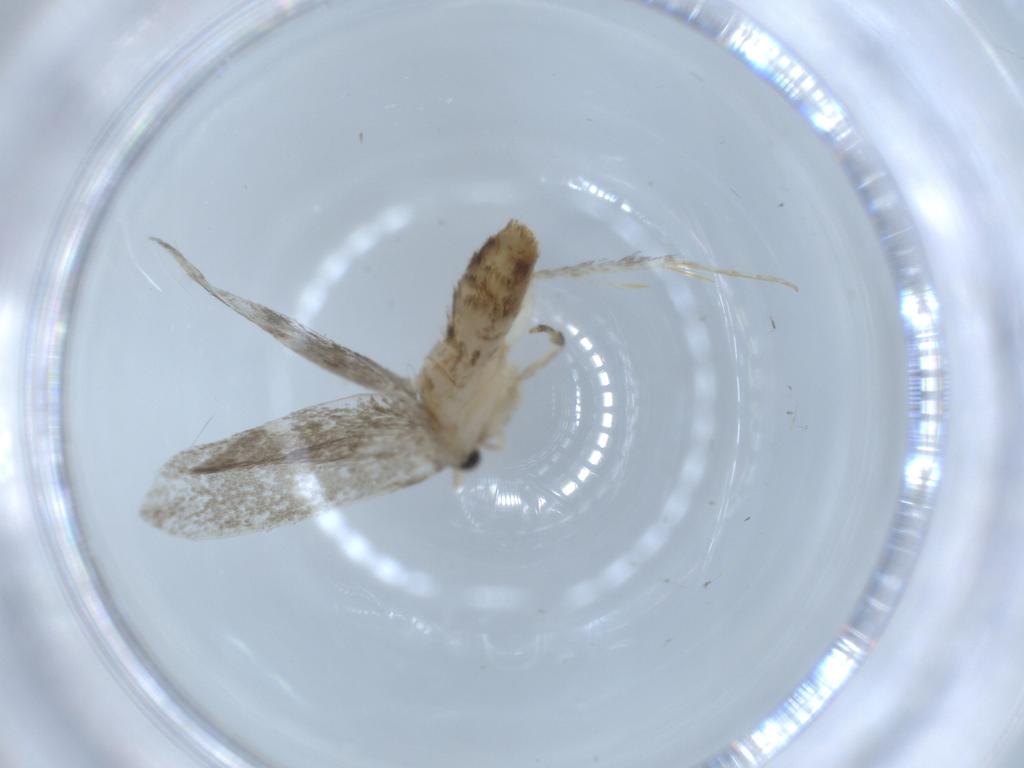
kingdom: Animalia
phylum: Arthropoda
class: Insecta
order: Lepidoptera
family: Tineidae
